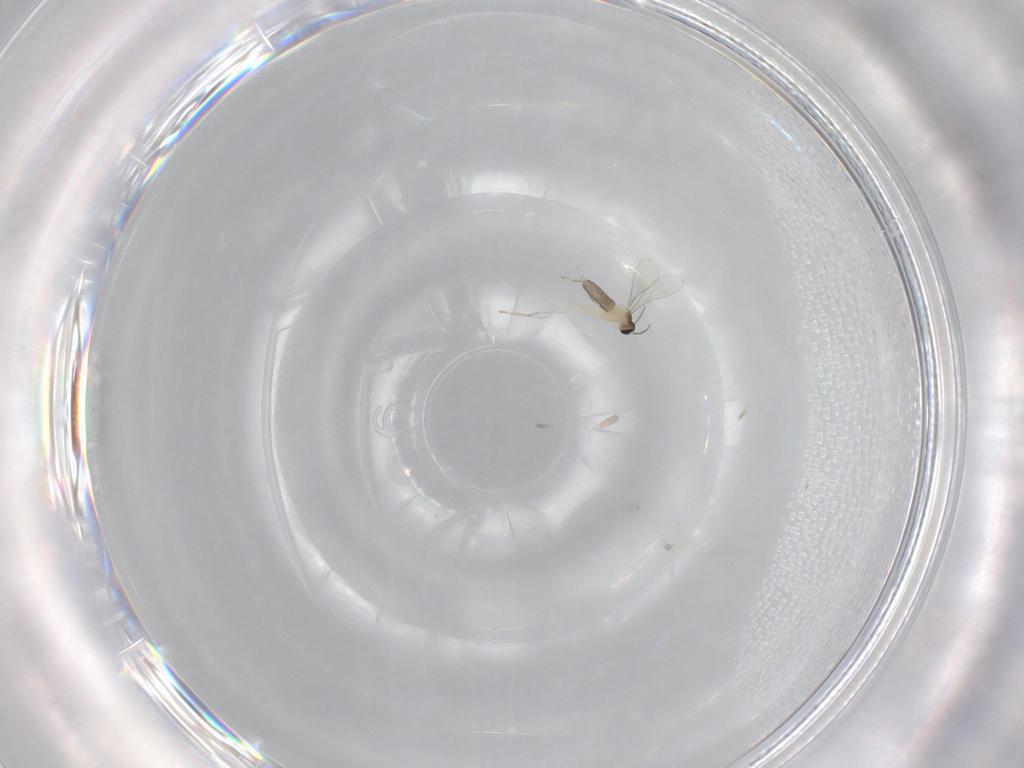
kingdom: Animalia
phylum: Arthropoda
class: Insecta
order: Diptera
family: Cecidomyiidae
